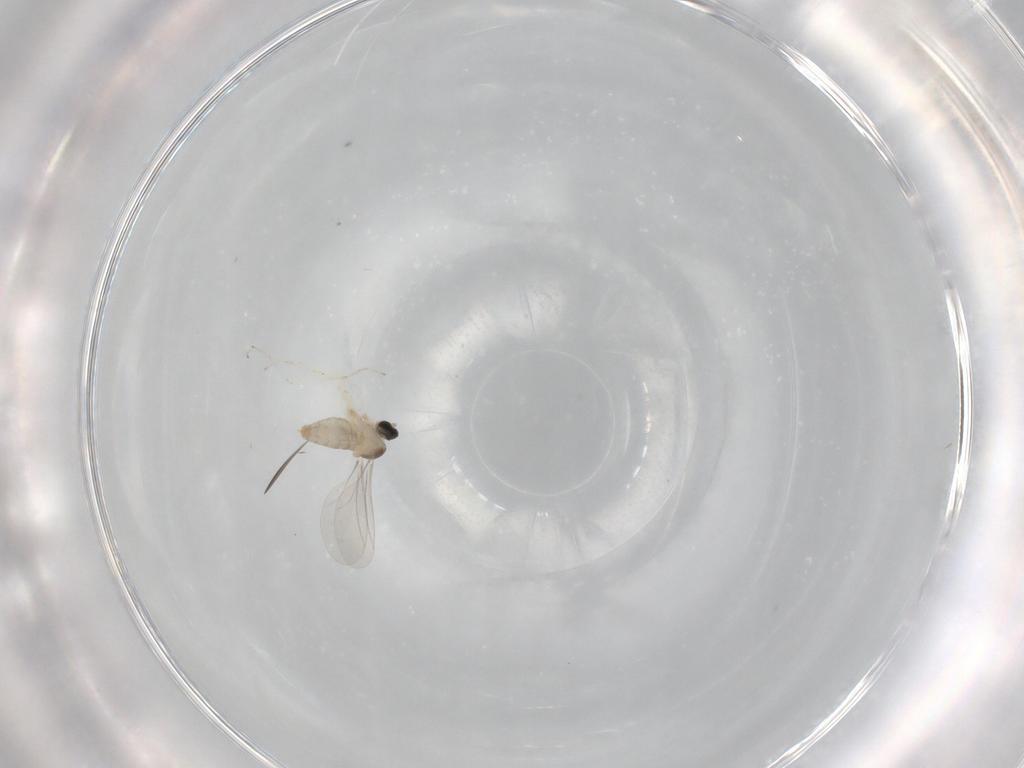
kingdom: Animalia
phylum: Arthropoda
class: Insecta
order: Diptera
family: Cecidomyiidae
